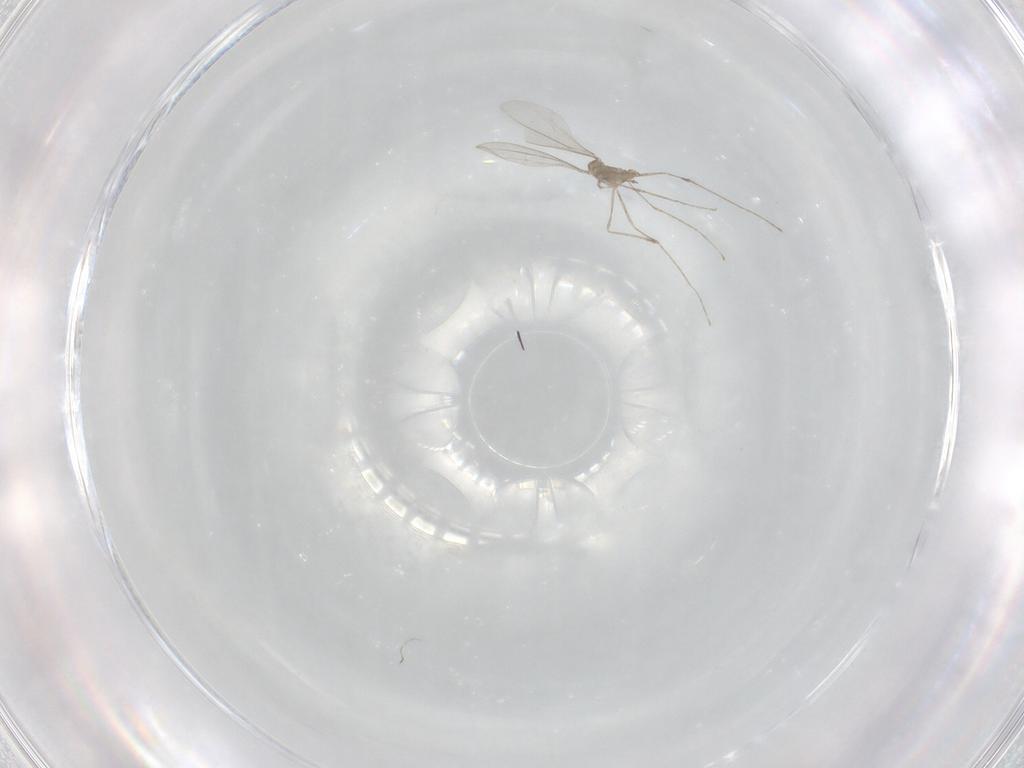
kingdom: Animalia
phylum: Arthropoda
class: Insecta
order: Diptera
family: Cecidomyiidae
